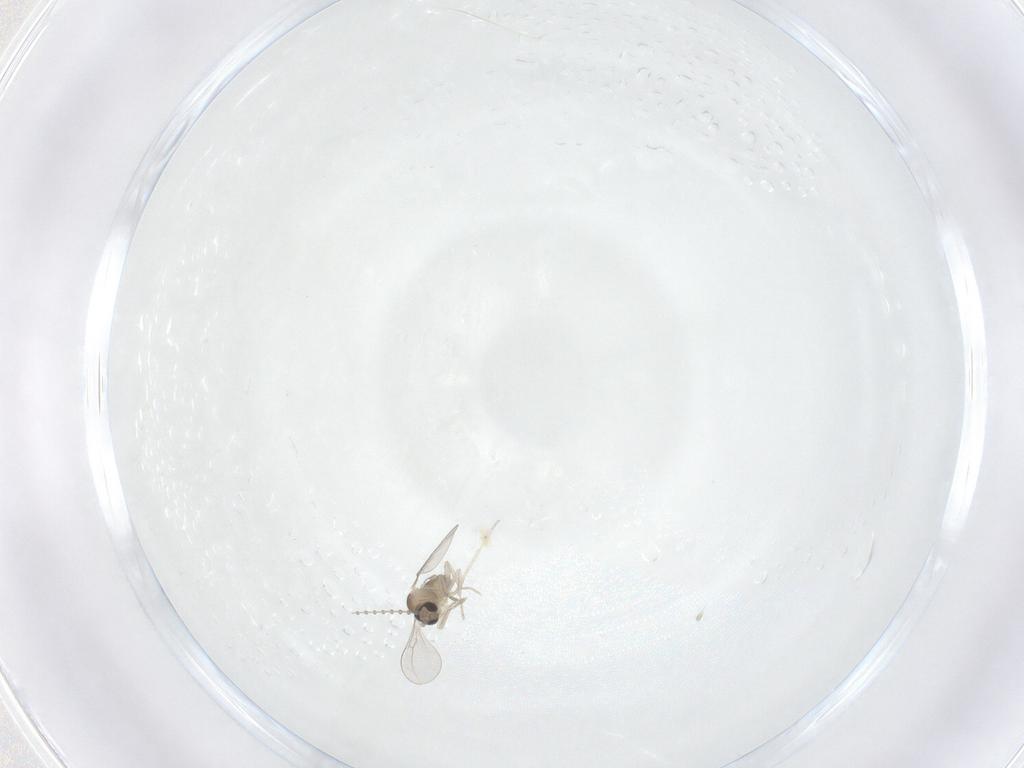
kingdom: Animalia
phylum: Arthropoda
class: Insecta
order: Diptera
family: Cecidomyiidae
